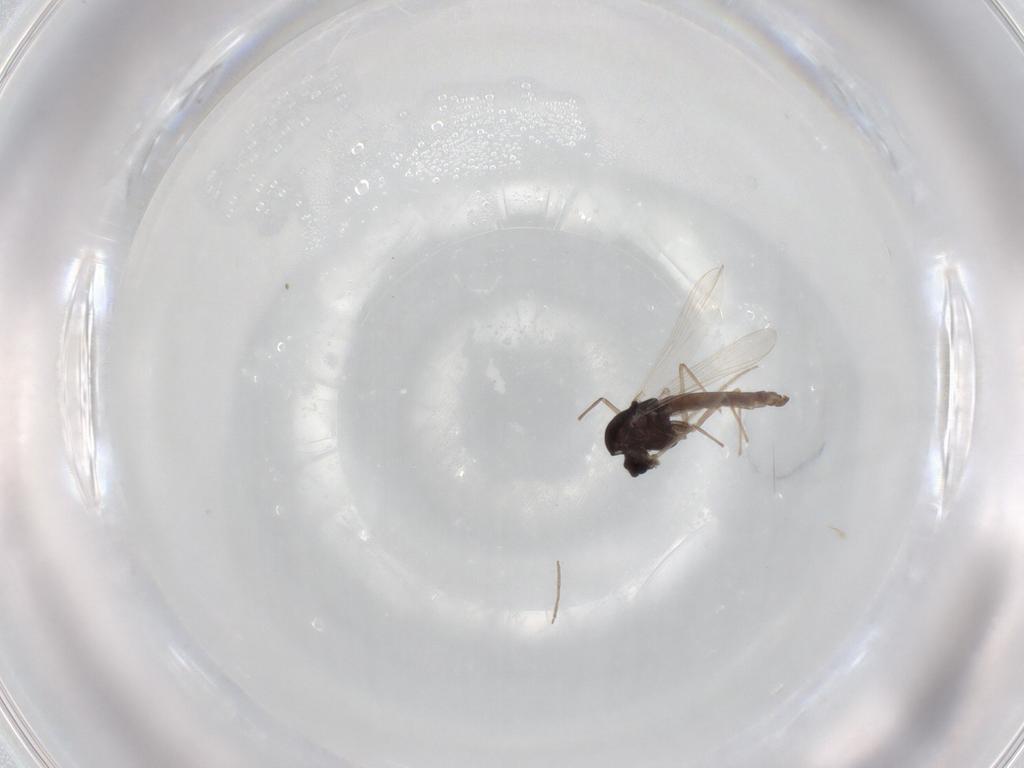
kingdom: Animalia
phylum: Arthropoda
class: Insecta
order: Diptera
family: Chironomidae
